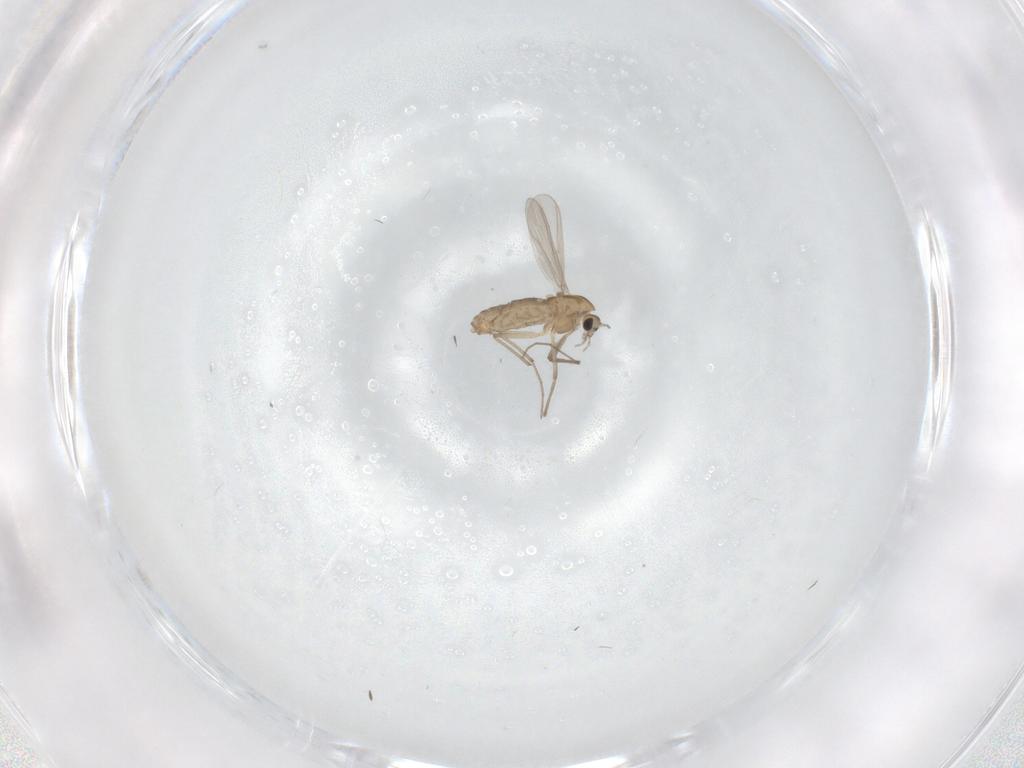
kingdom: Animalia
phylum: Arthropoda
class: Insecta
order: Diptera
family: Chironomidae
